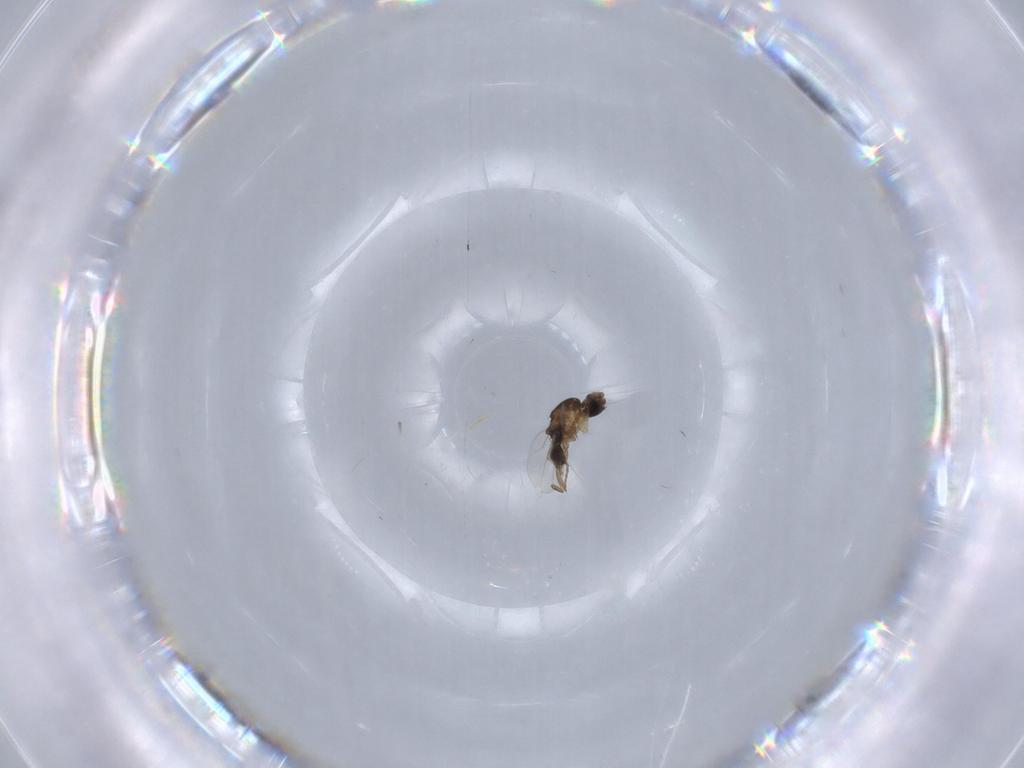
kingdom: Animalia
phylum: Arthropoda
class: Insecta
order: Diptera
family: Phoridae
